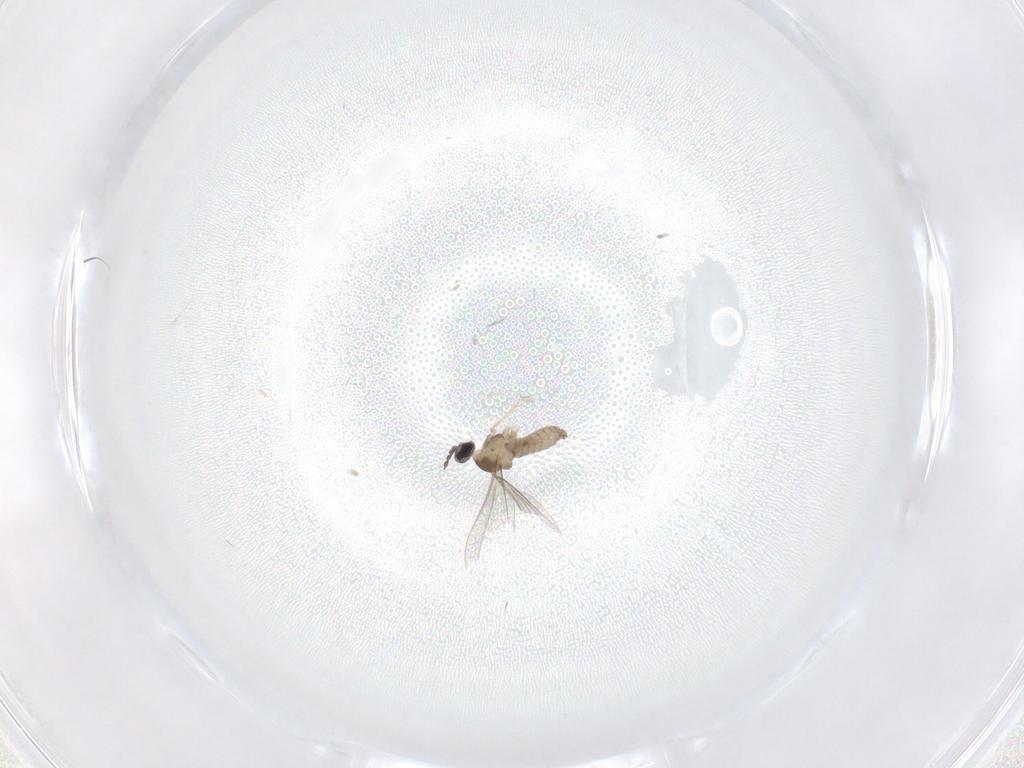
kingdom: Animalia
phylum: Arthropoda
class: Insecta
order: Diptera
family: Cecidomyiidae
